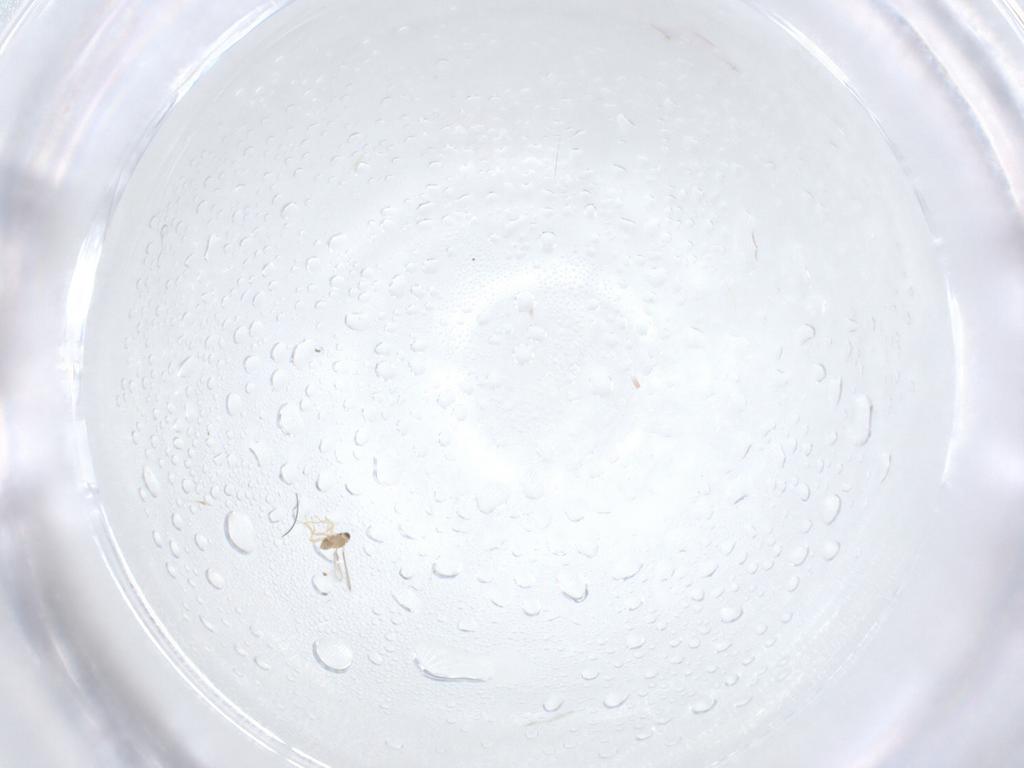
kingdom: Animalia
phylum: Arthropoda
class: Insecta
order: Hymenoptera
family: Mymaridae
